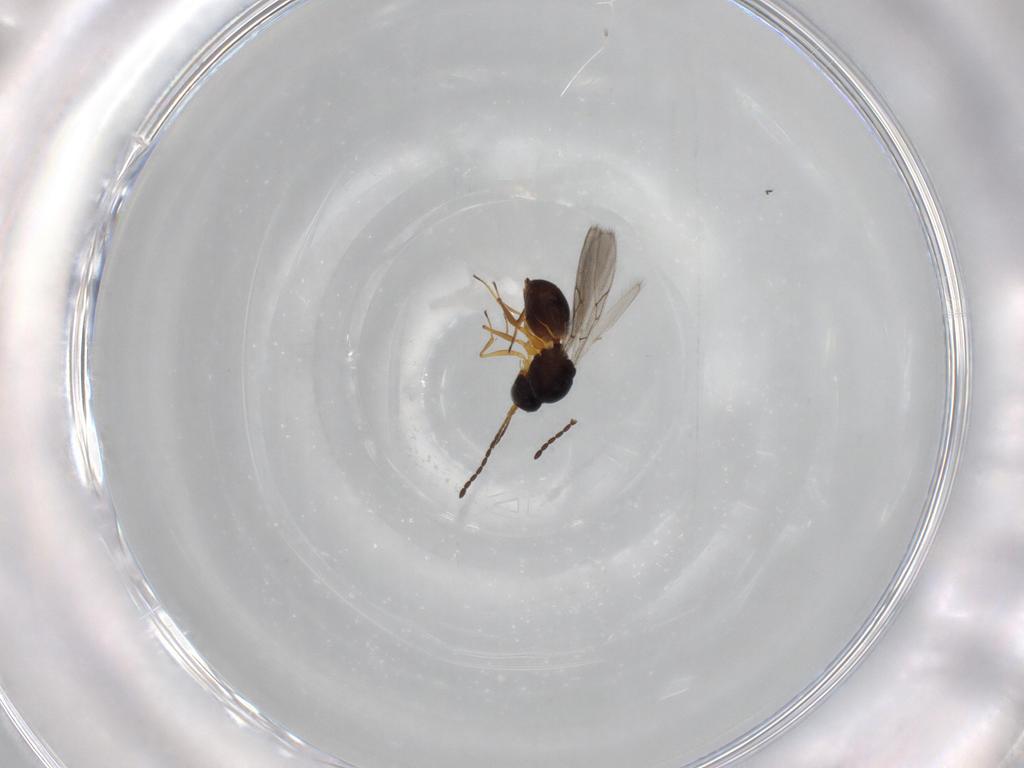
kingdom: Animalia
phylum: Arthropoda
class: Insecta
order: Hymenoptera
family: Figitidae
